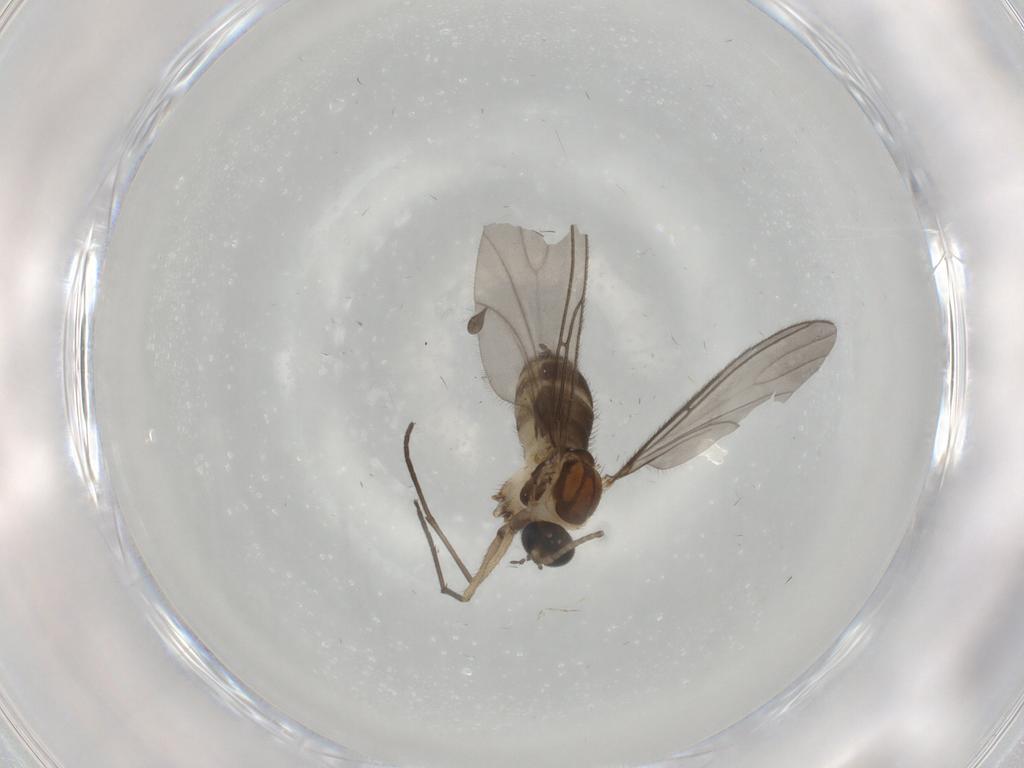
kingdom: Animalia
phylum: Arthropoda
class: Insecta
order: Diptera
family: Sciaridae
